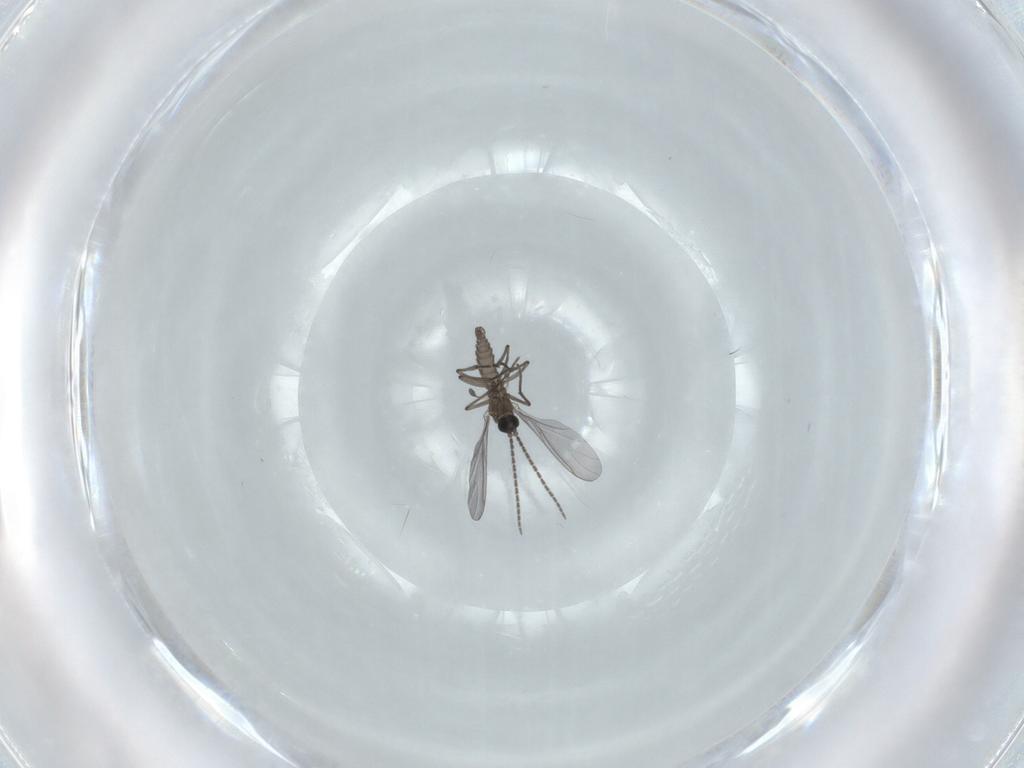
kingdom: Animalia
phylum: Arthropoda
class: Insecta
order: Diptera
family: Sciaridae
